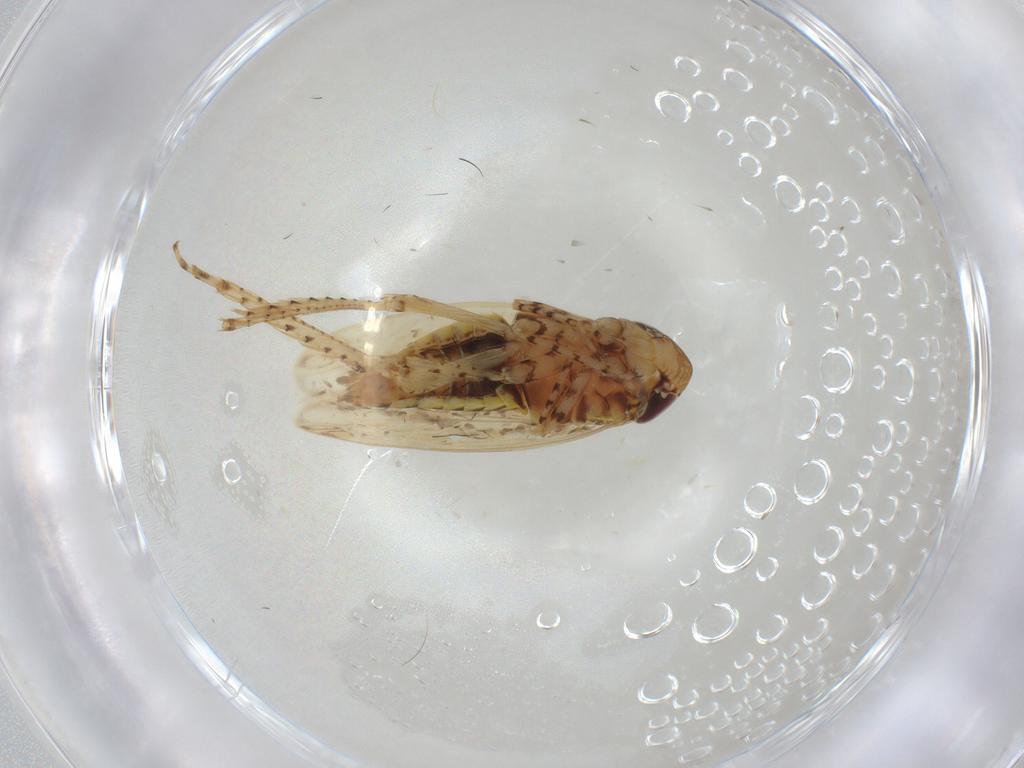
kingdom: Animalia
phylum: Arthropoda
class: Insecta
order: Hemiptera
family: Cicadellidae
